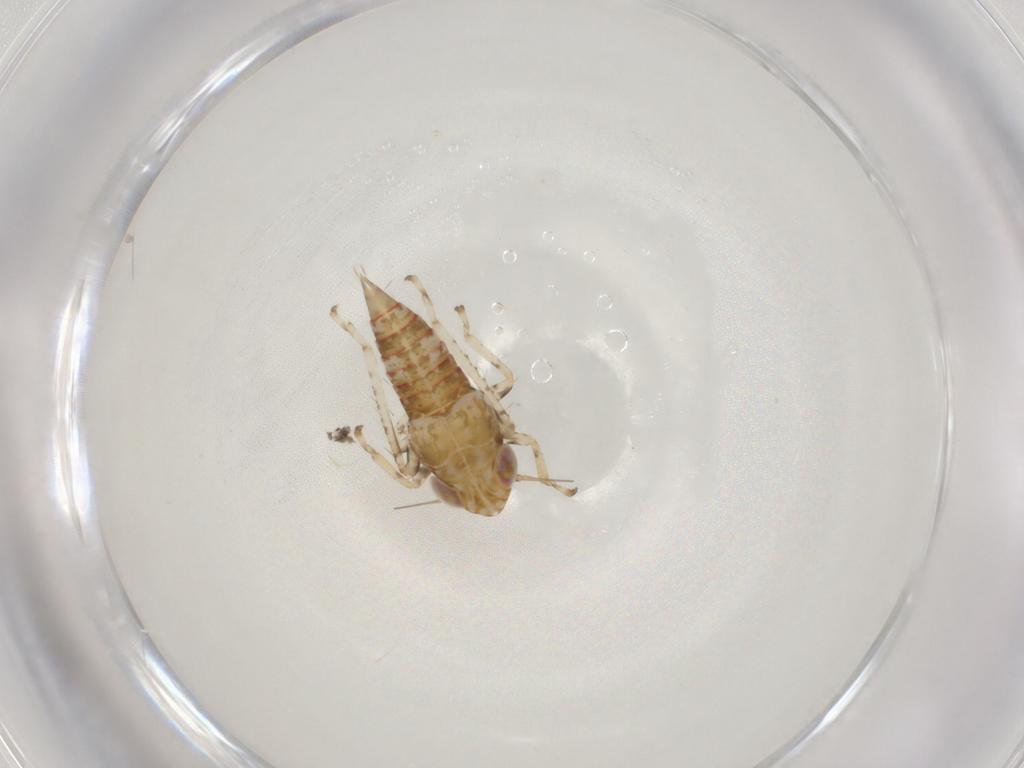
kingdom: Animalia
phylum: Arthropoda
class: Insecta
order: Hemiptera
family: Cicadellidae
